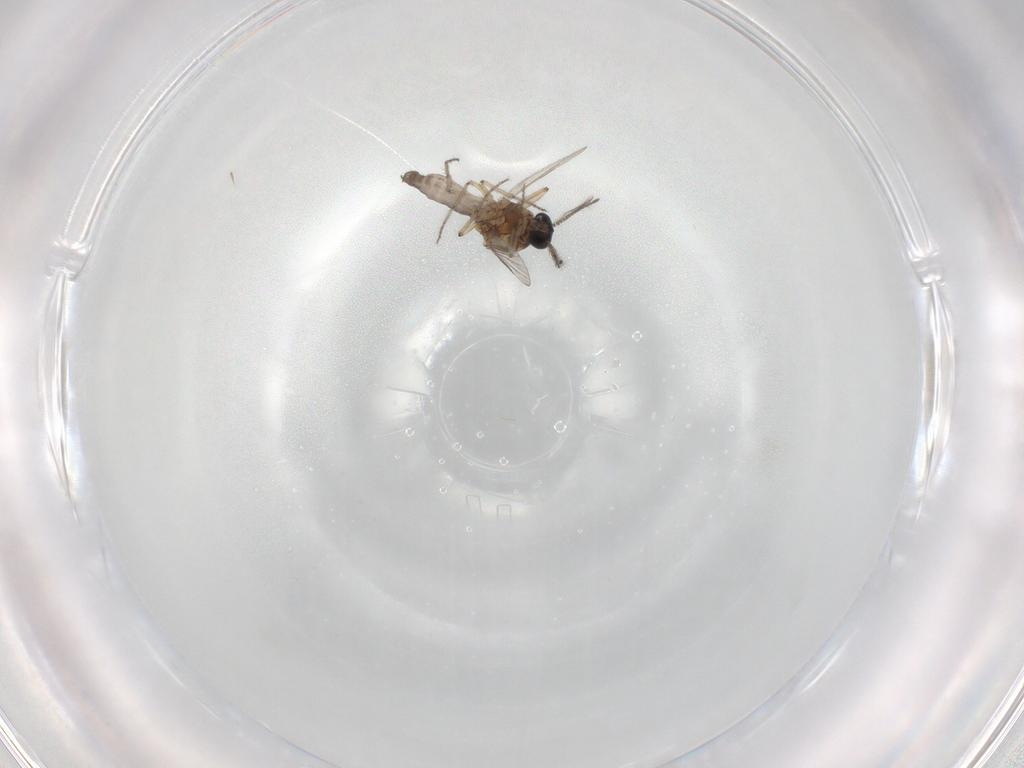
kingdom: Animalia
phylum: Arthropoda
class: Insecta
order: Diptera
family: Ceratopogonidae
